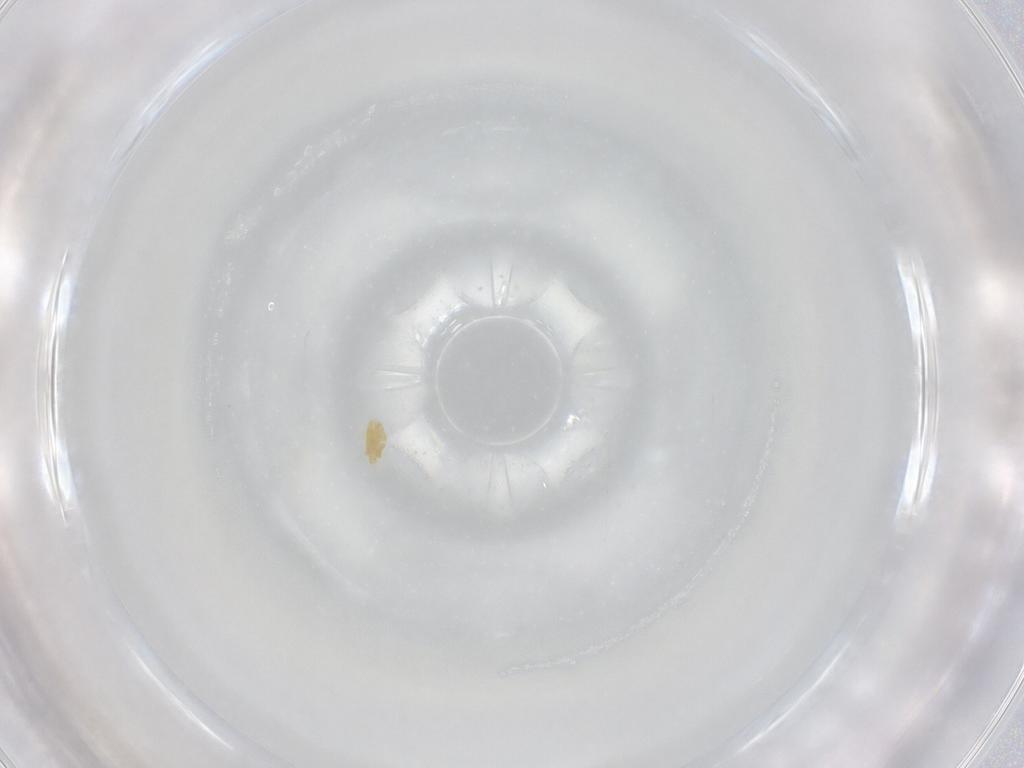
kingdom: Animalia
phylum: Arthropoda
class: Arachnida
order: Trombidiformes
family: Eupodidae
